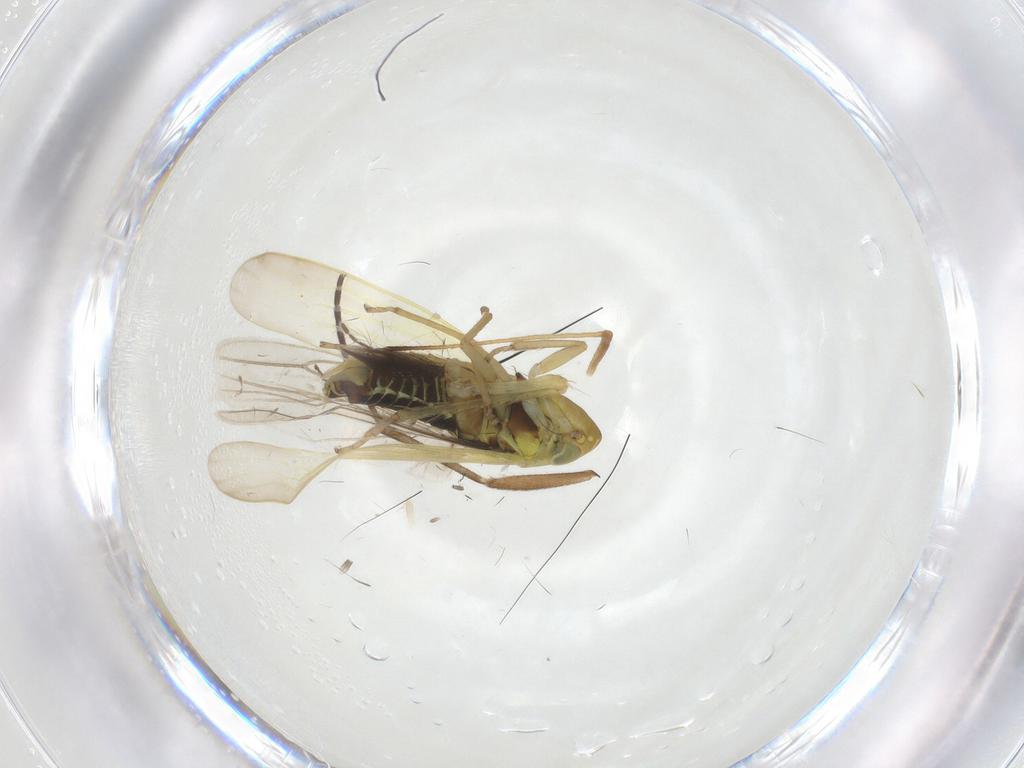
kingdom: Animalia
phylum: Arthropoda
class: Insecta
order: Hemiptera
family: Cicadellidae
